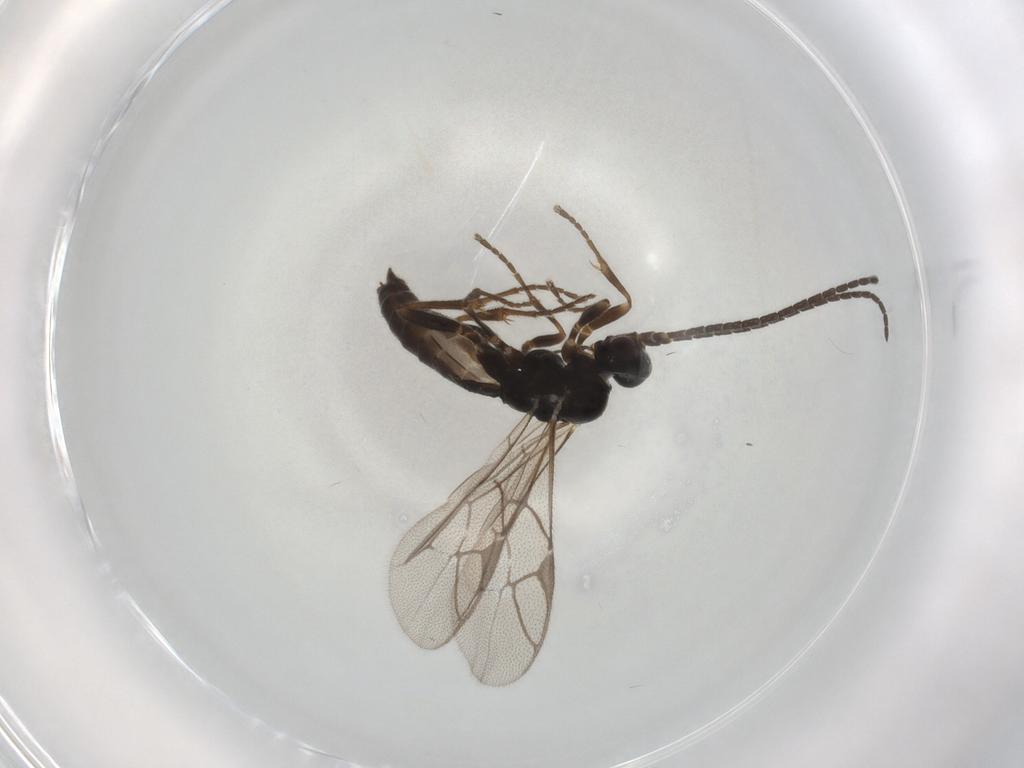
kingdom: Animalia
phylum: Arthropoda
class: Insecta
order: Hymenoptera
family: Ichneumonidae
